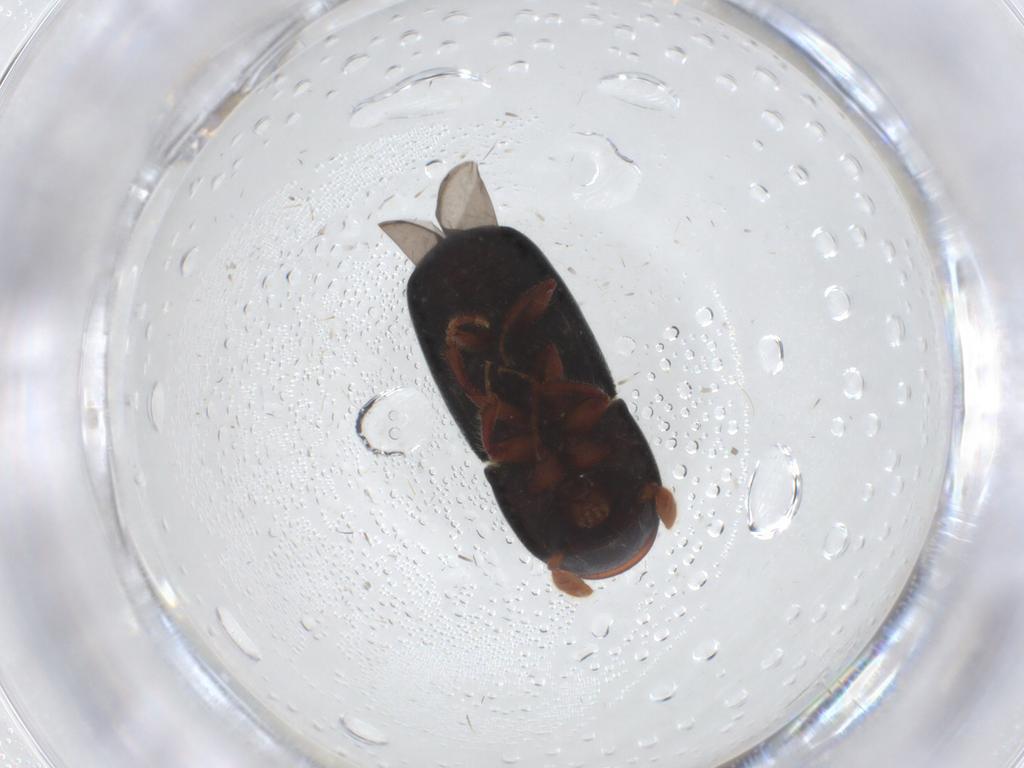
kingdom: Animalia
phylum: Arthropoda
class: Insecta
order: Coleoptera
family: Curculionidae
